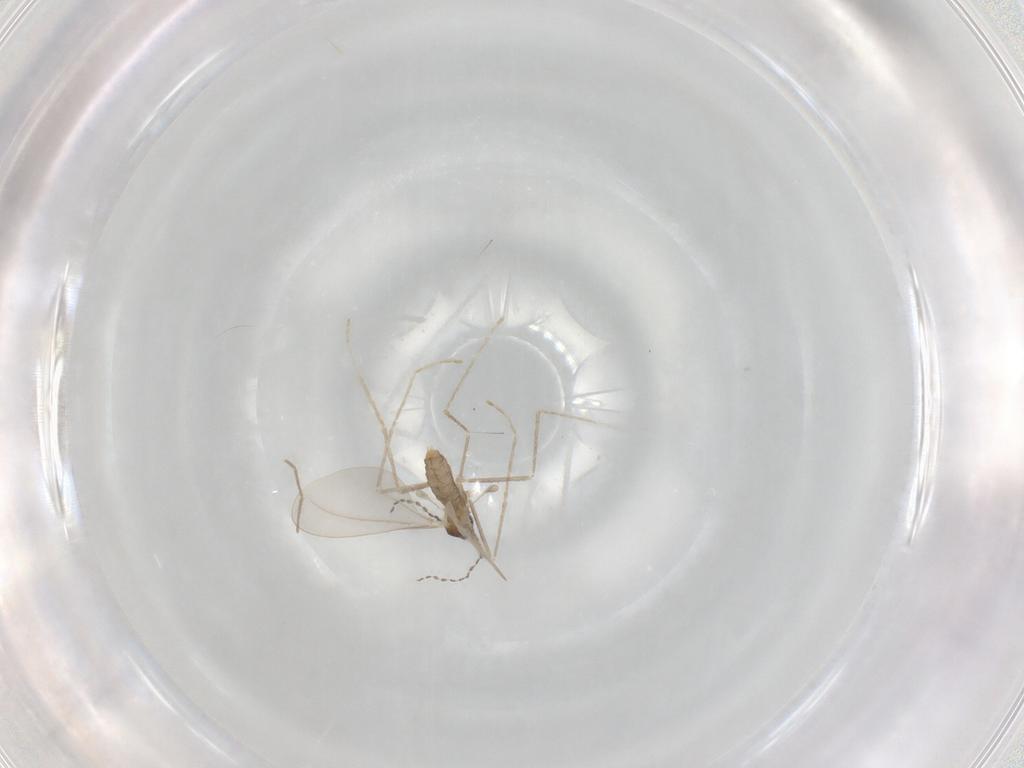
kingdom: Animalia
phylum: Arthropoda
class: Insecta
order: Diptera
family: Cecidomyiidae
